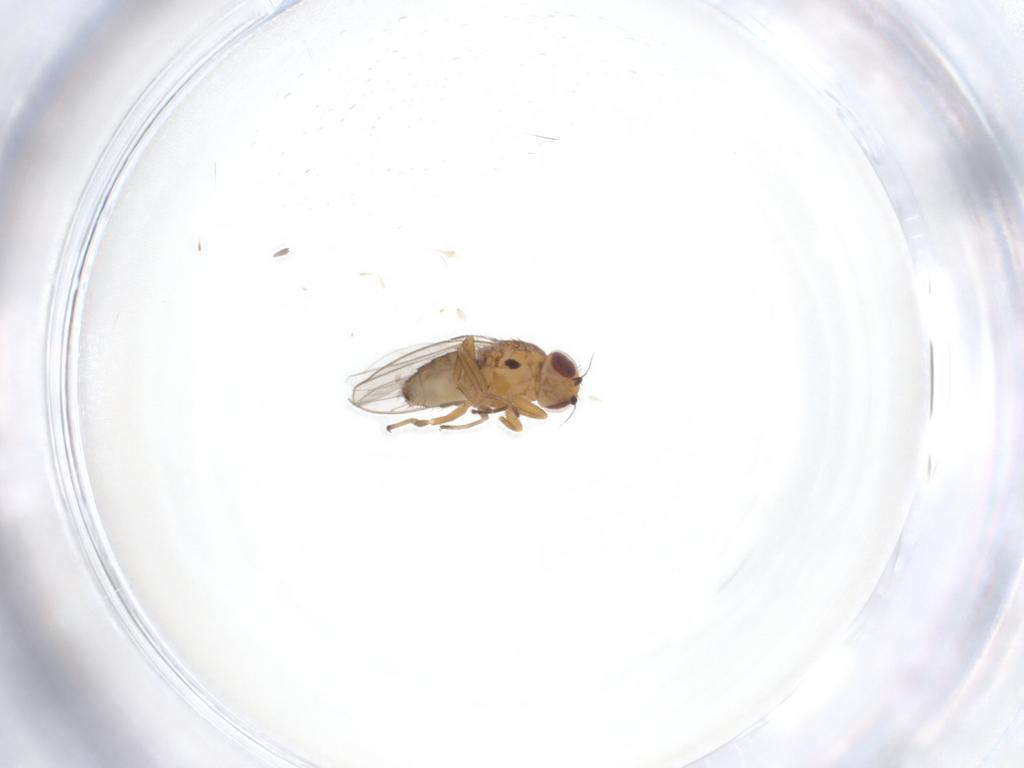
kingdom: Animalia
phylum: Arthropoda
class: Insecta
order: Diptera
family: Chloropidae
